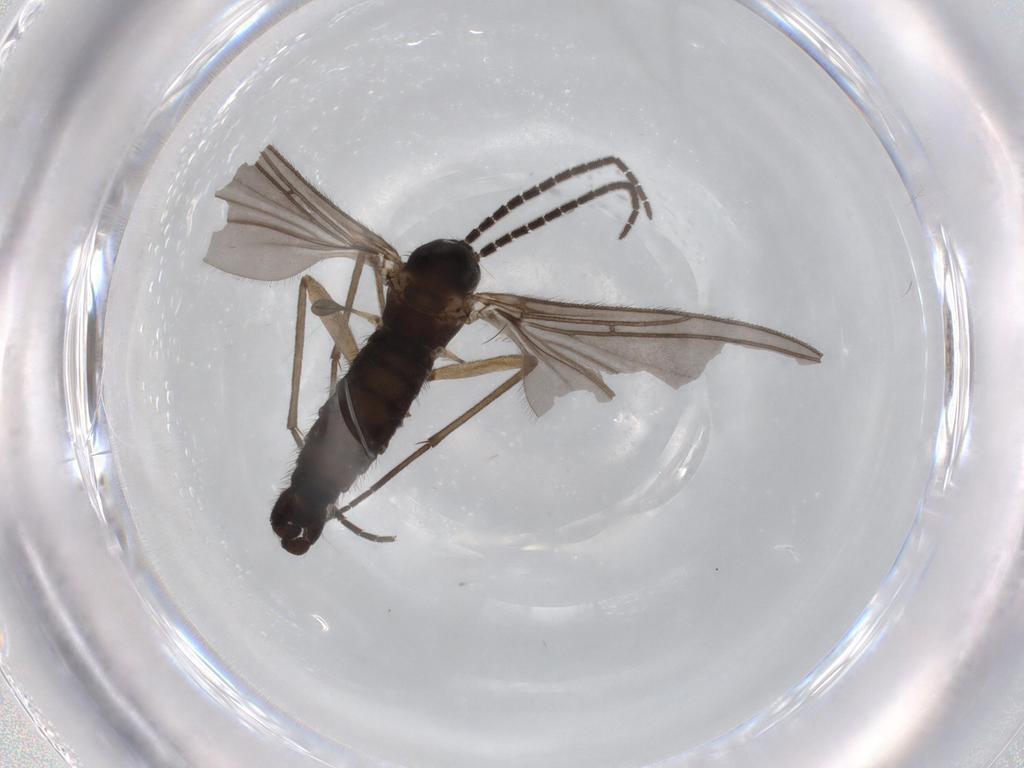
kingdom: Animalia
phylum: Arthropoda
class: Insecta
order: Diptera
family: Sciaridae
